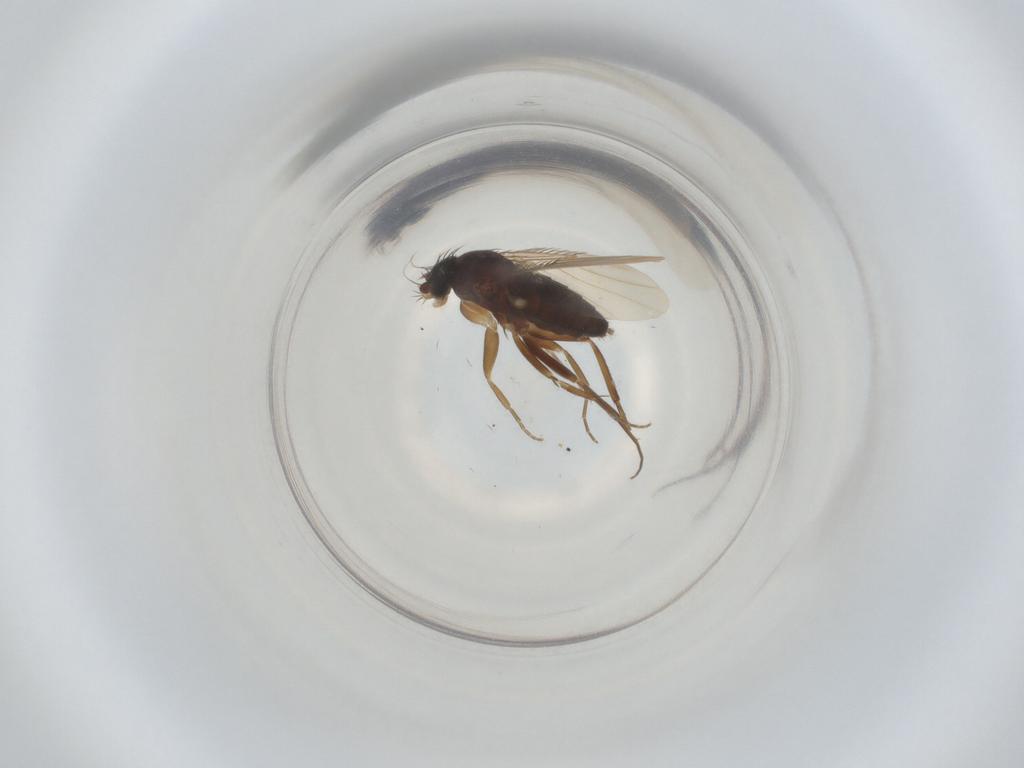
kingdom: Animalia
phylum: Arthropoda
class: Insecta
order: Diptera
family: Phoridae
